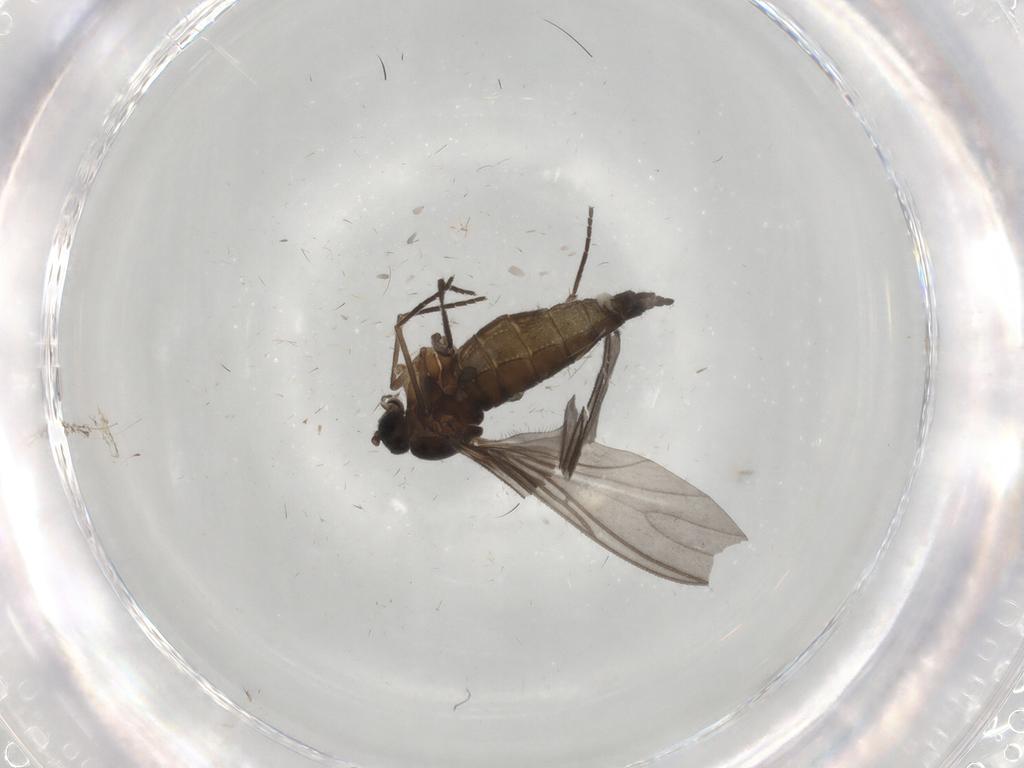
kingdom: Animalia
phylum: Arthropoda
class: Insecta
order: Diptera
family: Sciaridae
